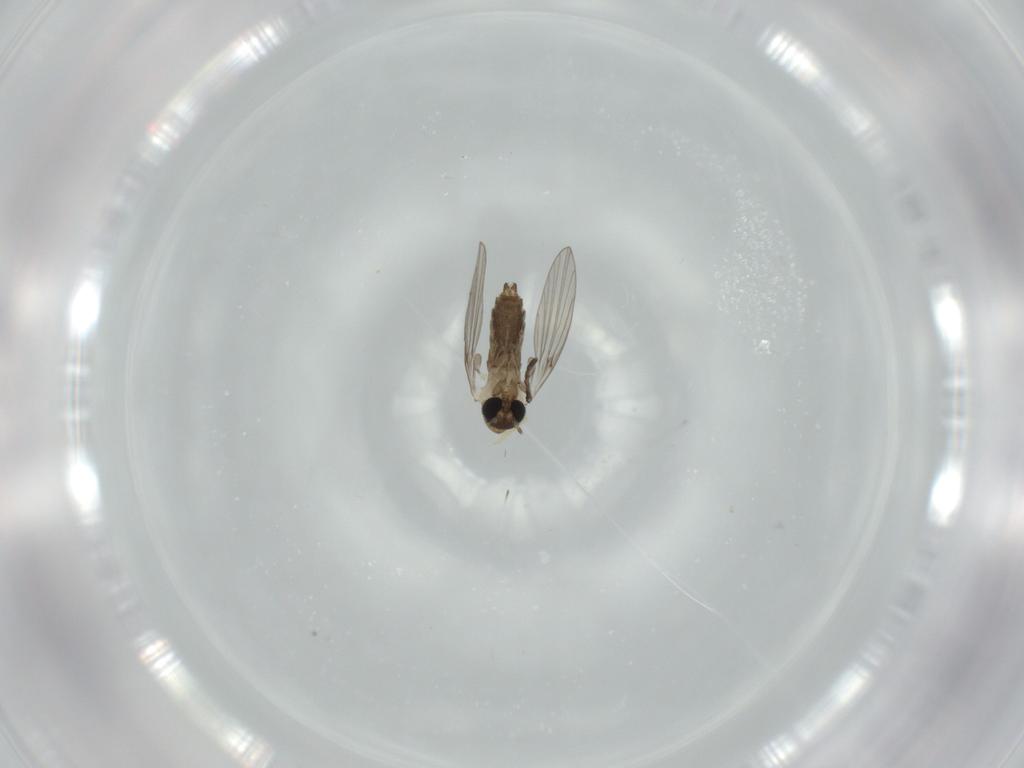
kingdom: Animalia
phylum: Arthropoda
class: Insecta
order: Diptera
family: Psychodidae
